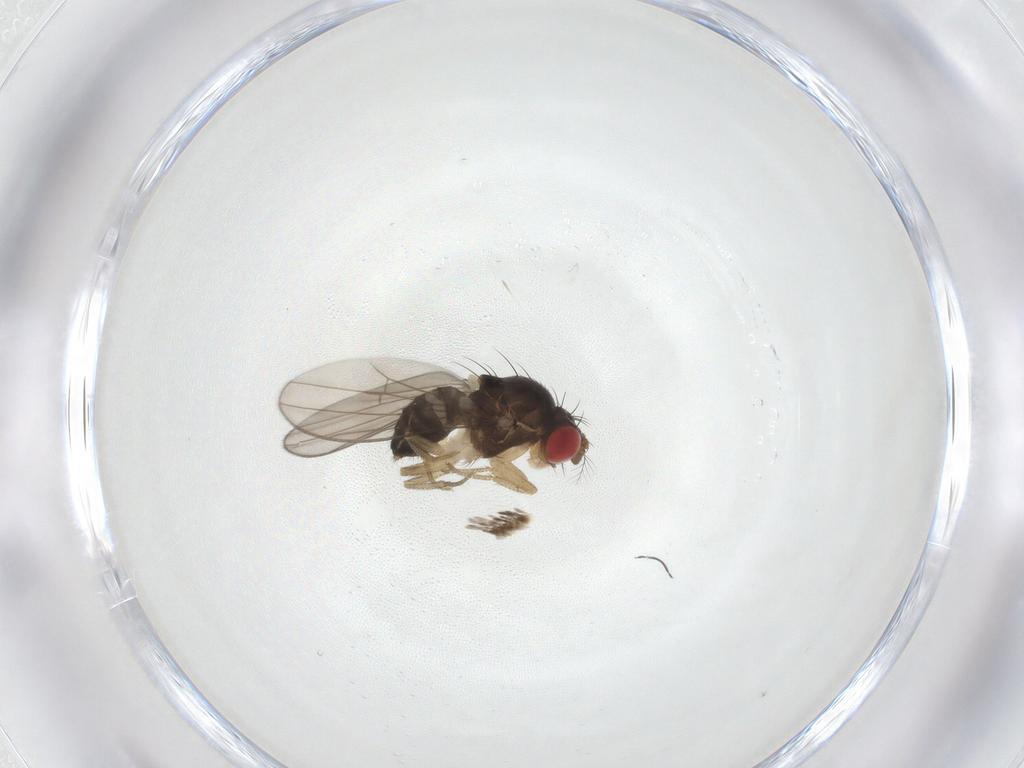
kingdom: Animalia
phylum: Arthropoda
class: Insecta
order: Diptera
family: Drosophilidae
